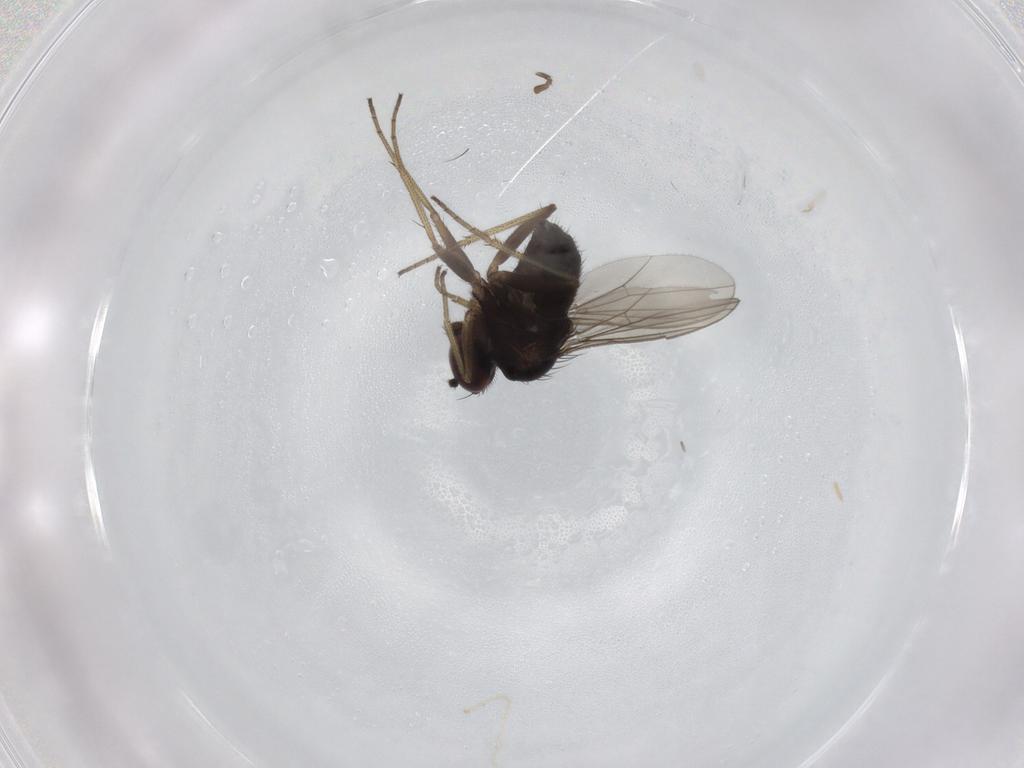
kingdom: Animalia
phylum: Arthropoda
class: Insecta
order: Diptera
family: Dolichopodidae
